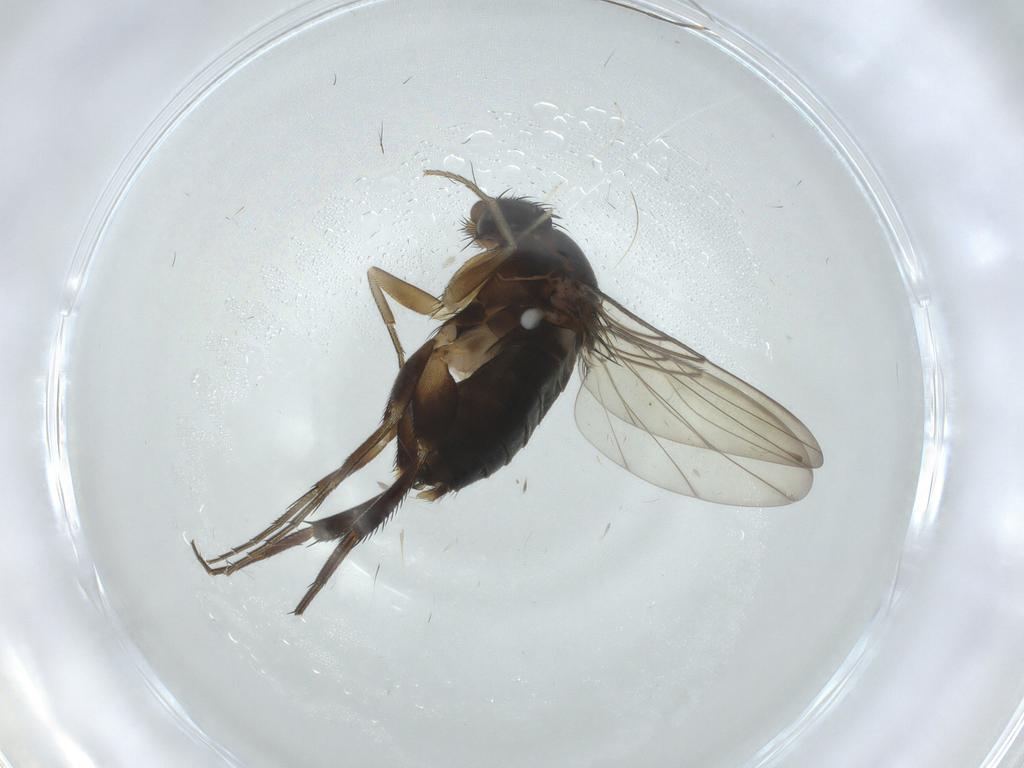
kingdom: Animalia
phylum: Arthropoda
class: Insecta
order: Diptera
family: Phoridae
